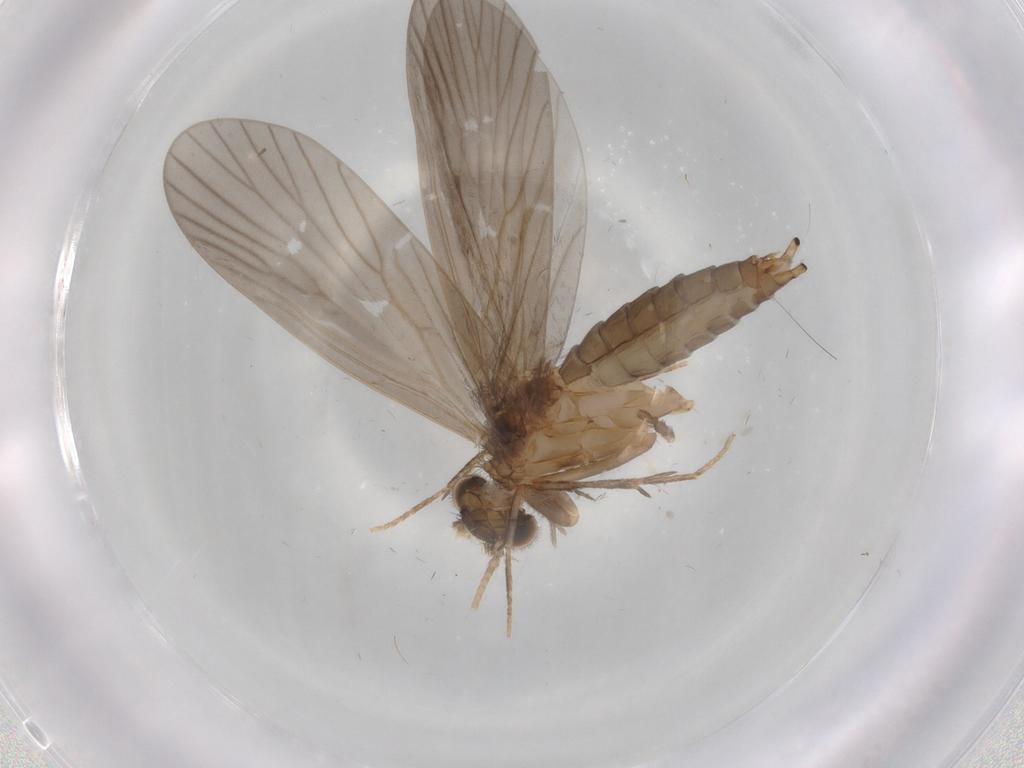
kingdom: Animalia
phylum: Arthropoda
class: Insecta
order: Trichoptera
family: Philopotamidae
